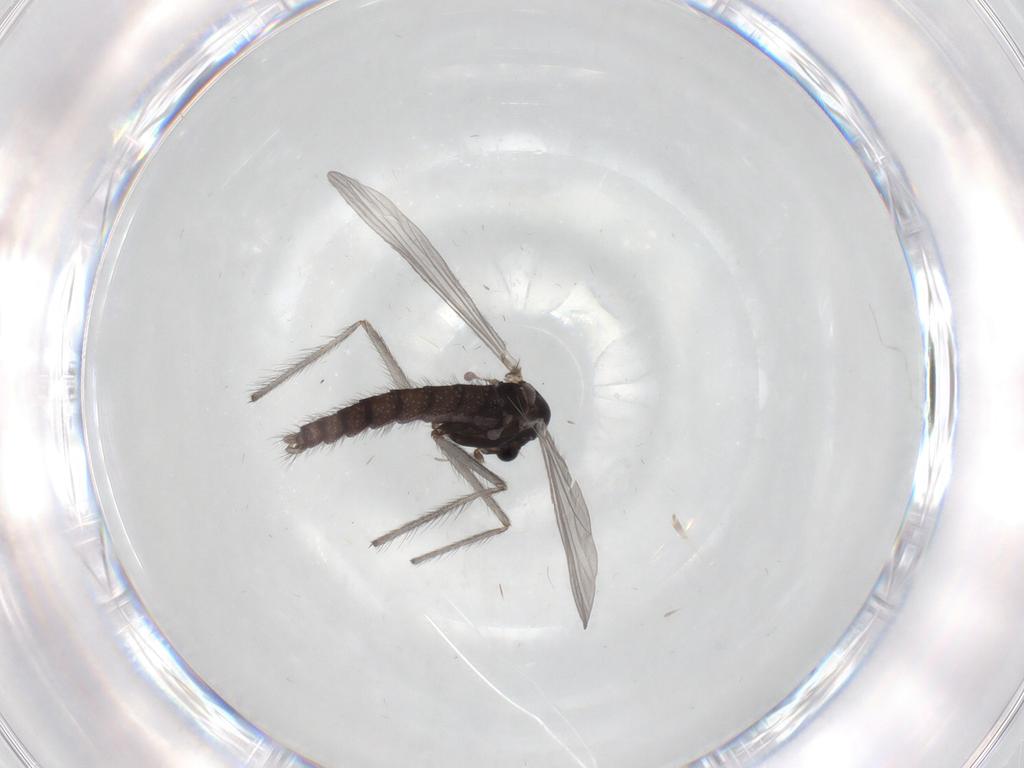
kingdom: Animalia
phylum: Arthropoda
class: Insecta
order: Diptera
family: Sciaridae
